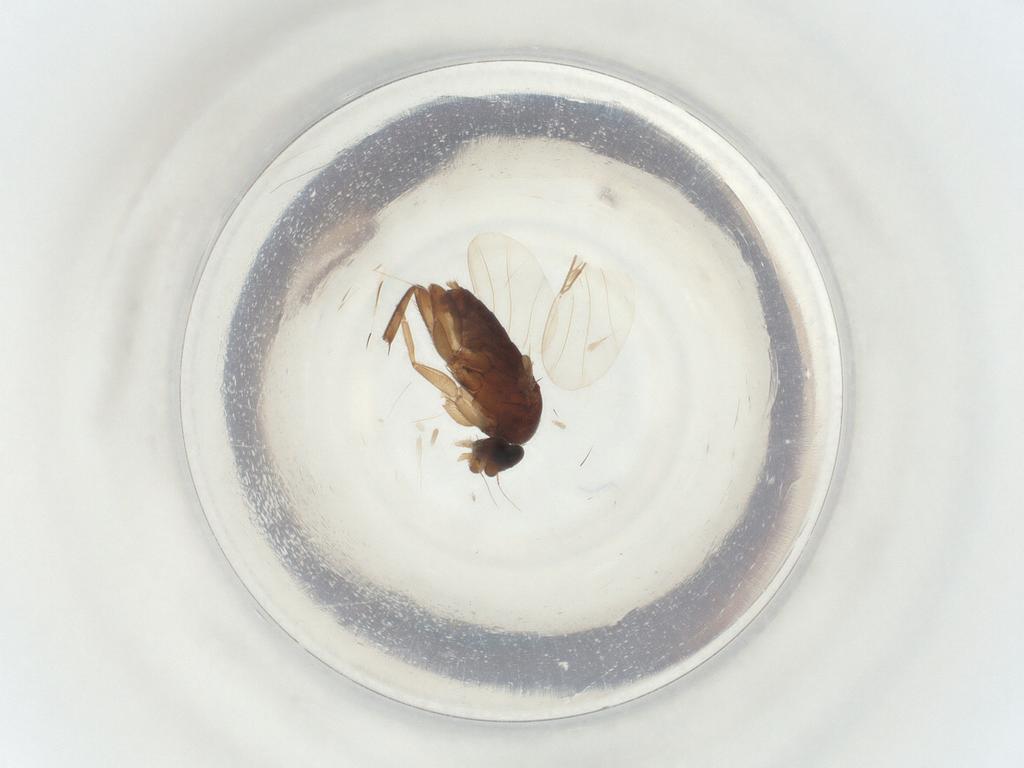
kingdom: Animalia
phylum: Arthropoda
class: Insecta
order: Diptera
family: Phoridae
